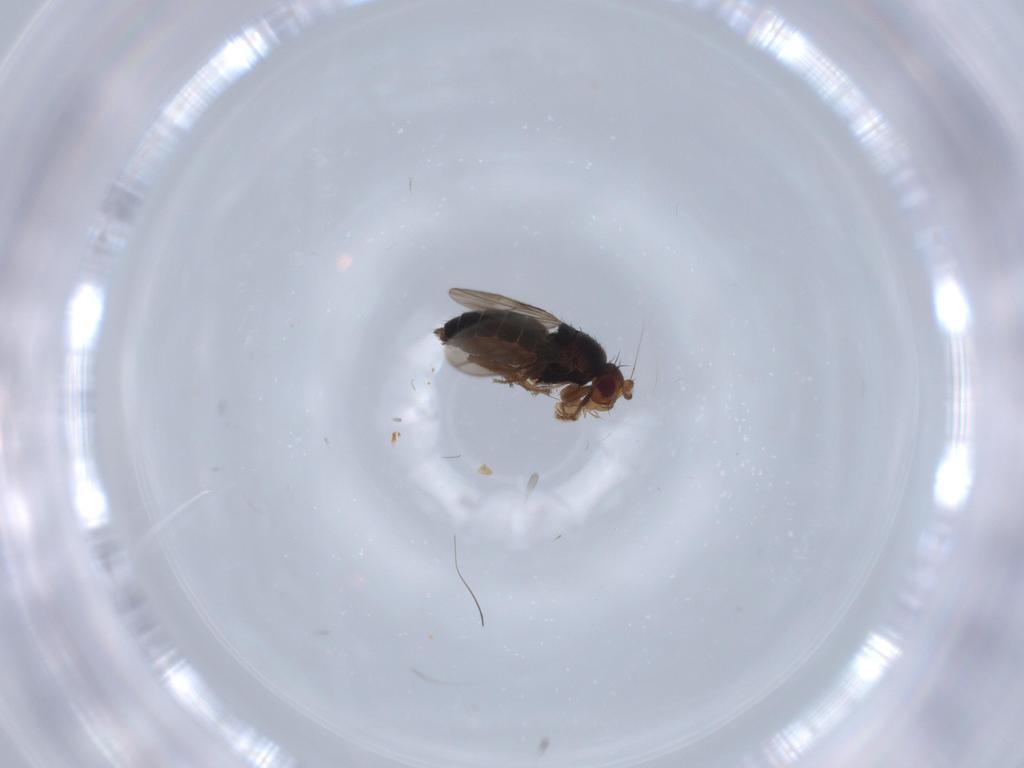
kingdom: Animalia
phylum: Arthropoda
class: Insecta
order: Diptera
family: Sphaeroceridae
